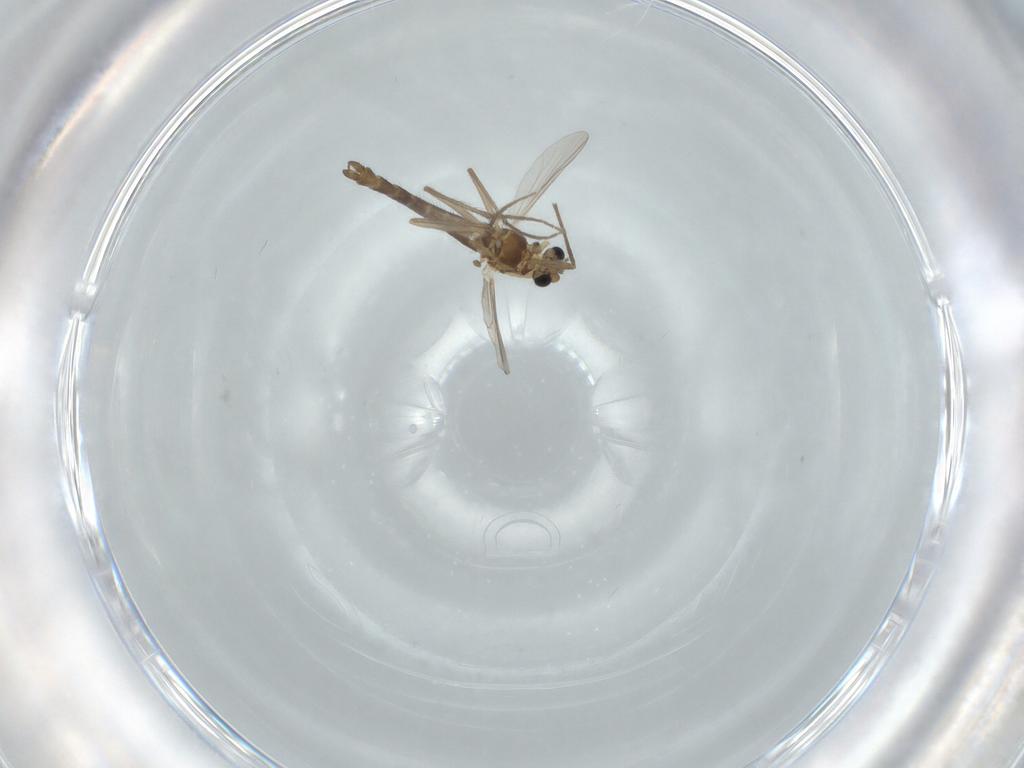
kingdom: Animalia
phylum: Arthropoda
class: Insecta
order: Diptera
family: Chironomidae
